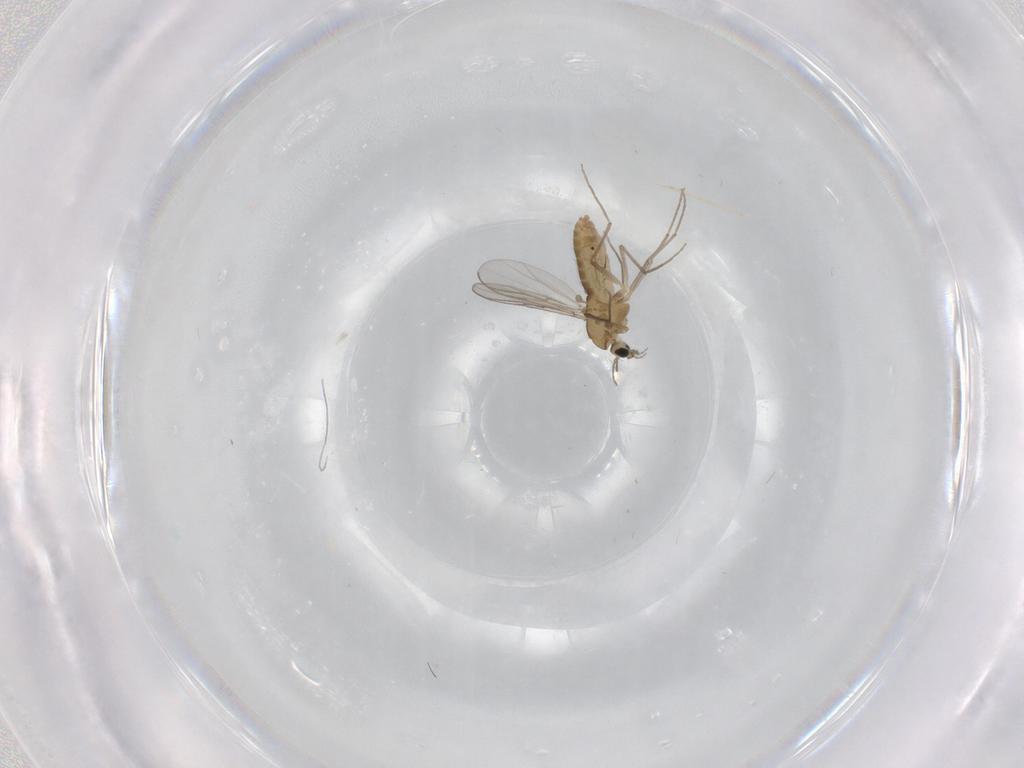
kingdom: Animalia
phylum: Arthropoda
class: Insecta
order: Diptera
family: Chironomidae
